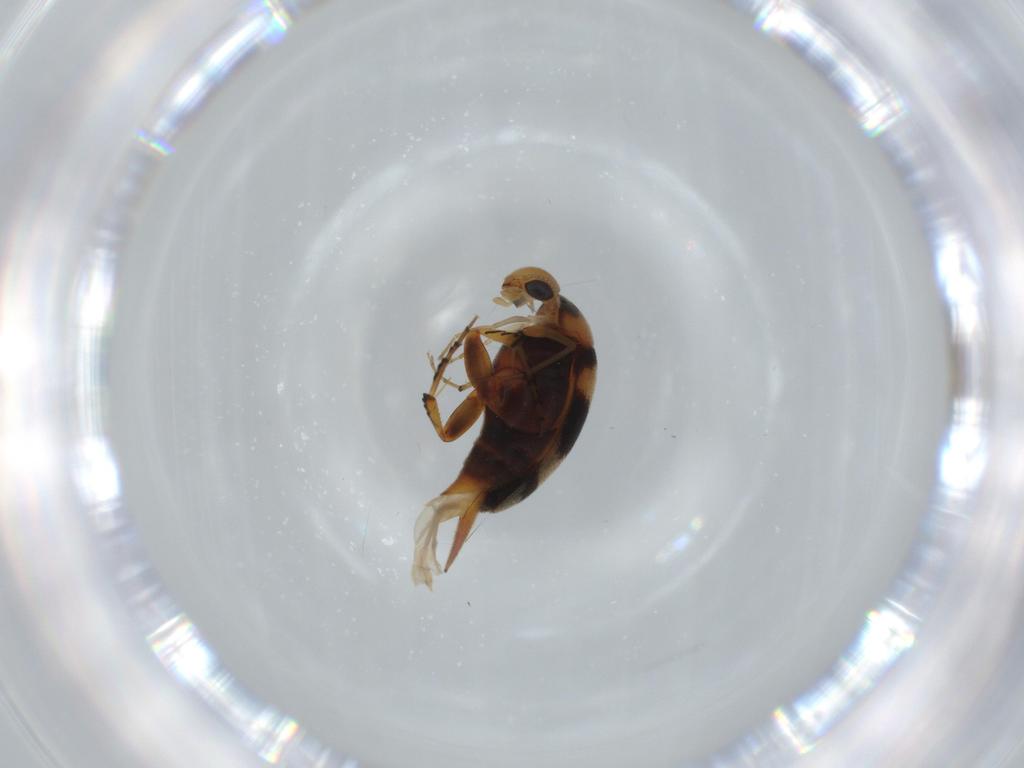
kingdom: Animalia
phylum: Arthropoda
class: Insecta
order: Coleoptera
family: Mordellidae
